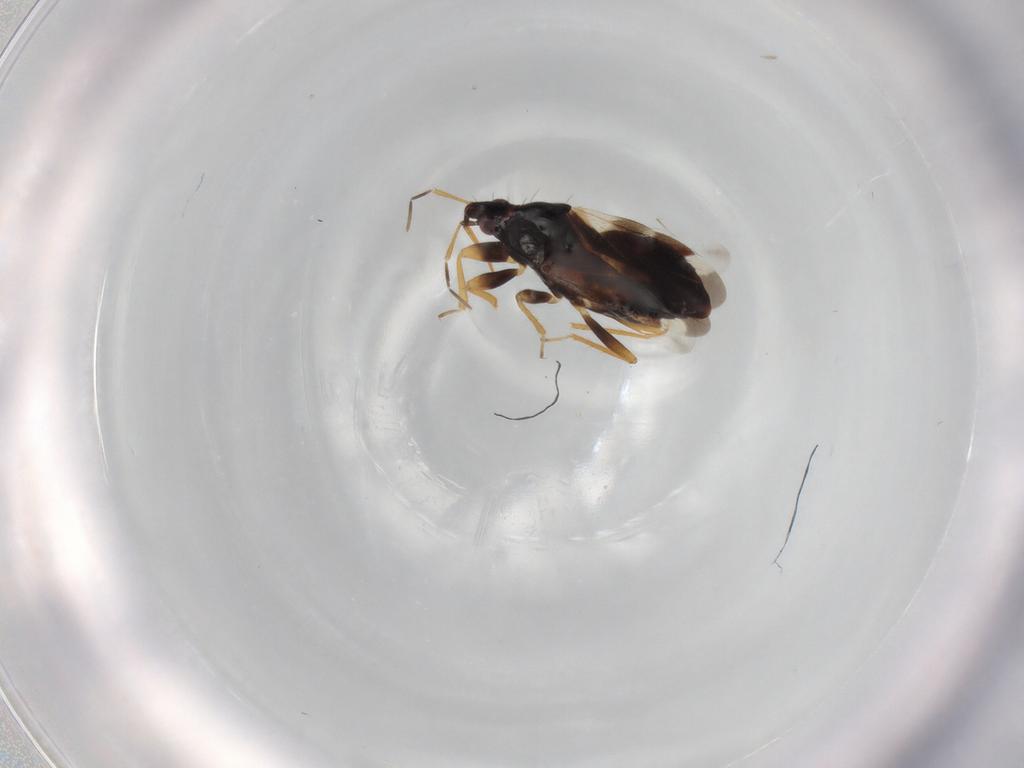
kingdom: Animalia
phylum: Arthropoda
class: Insecta
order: Hemiptera
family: Anthocoridae
